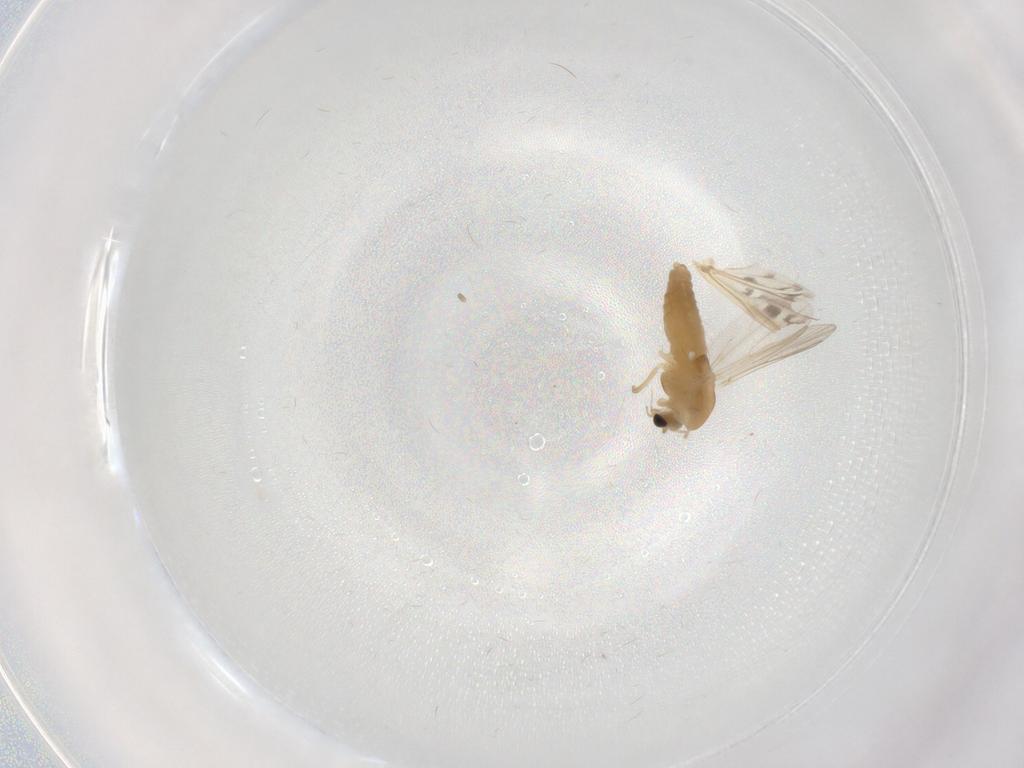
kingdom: Animalia
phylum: Arthropoda
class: Insecta
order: Diptera
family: Chironomidae
